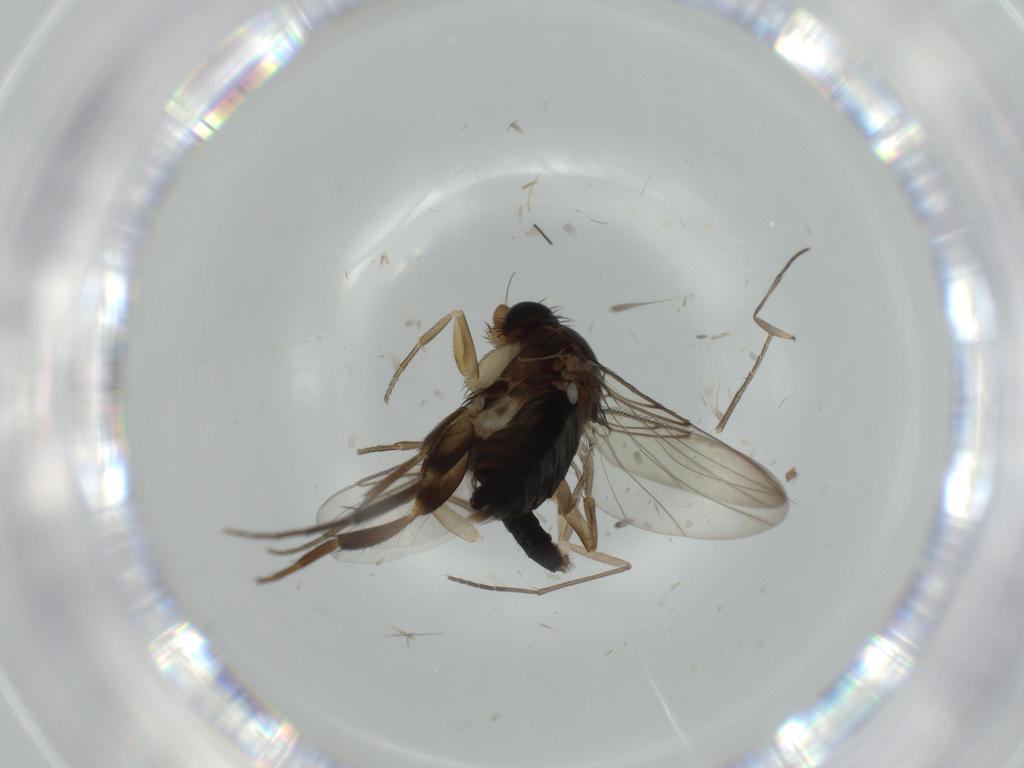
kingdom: Animalia
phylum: Arthropoda
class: Insecta
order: Diptera
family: Phoridae
